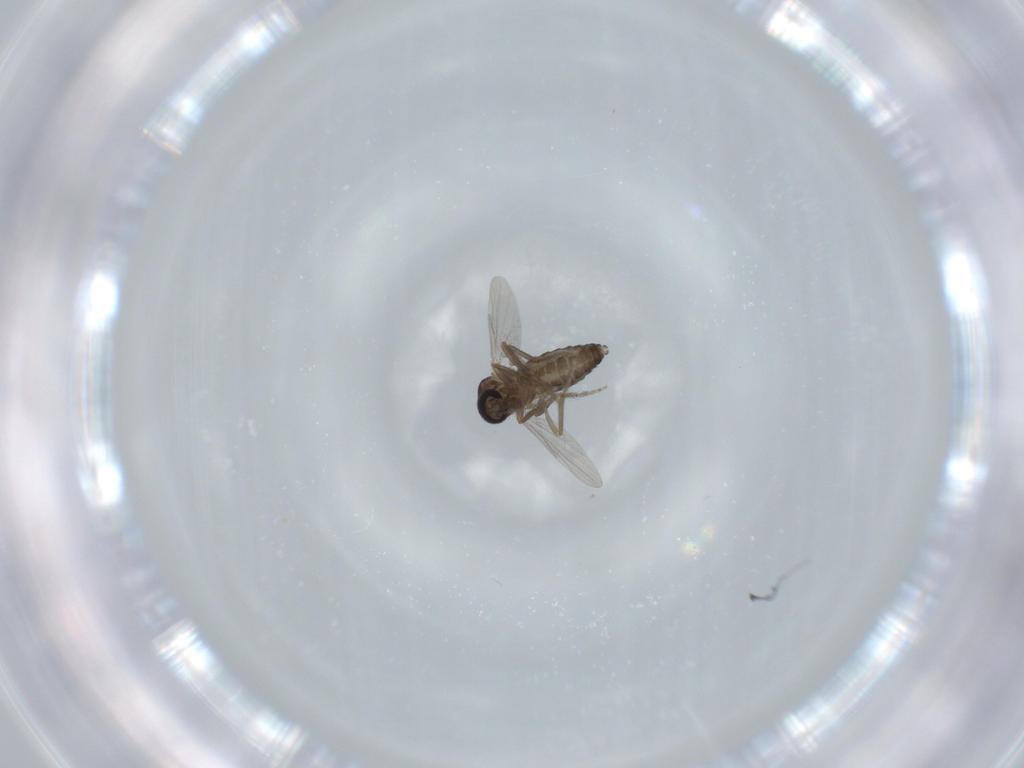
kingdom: Animalia
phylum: Arthropoda
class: Insecta
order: Diptera
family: Ceratopogonidae
